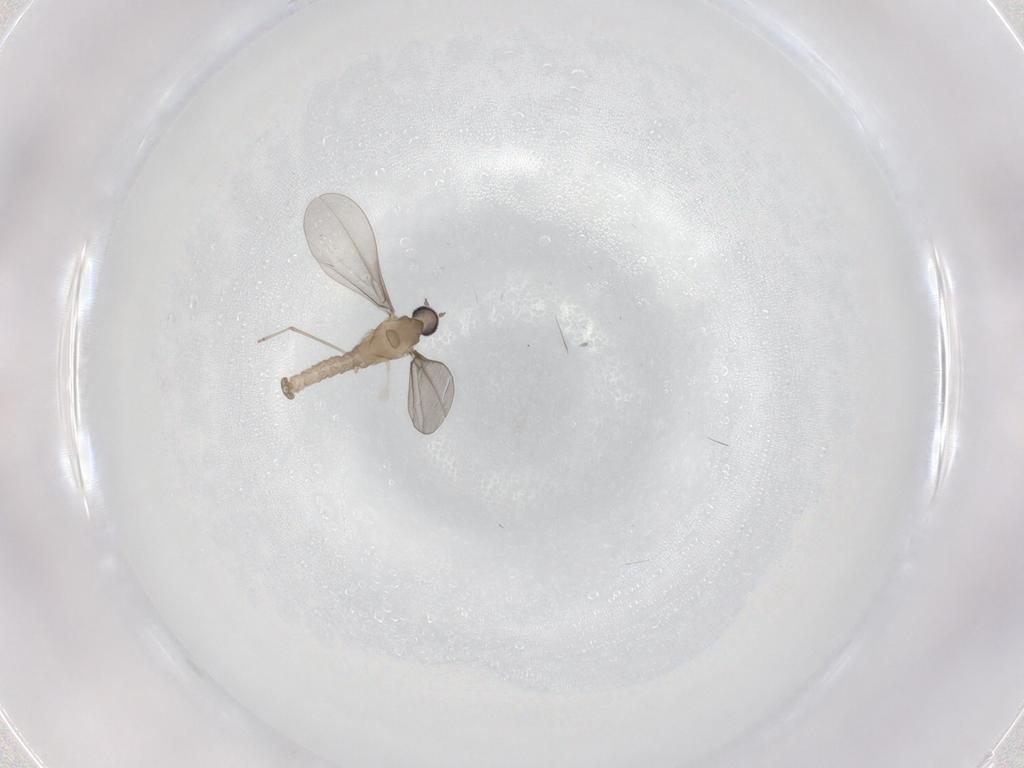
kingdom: Animalia
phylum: Arthropoda
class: Insecta
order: Diptera
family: Cecidomyiidae
